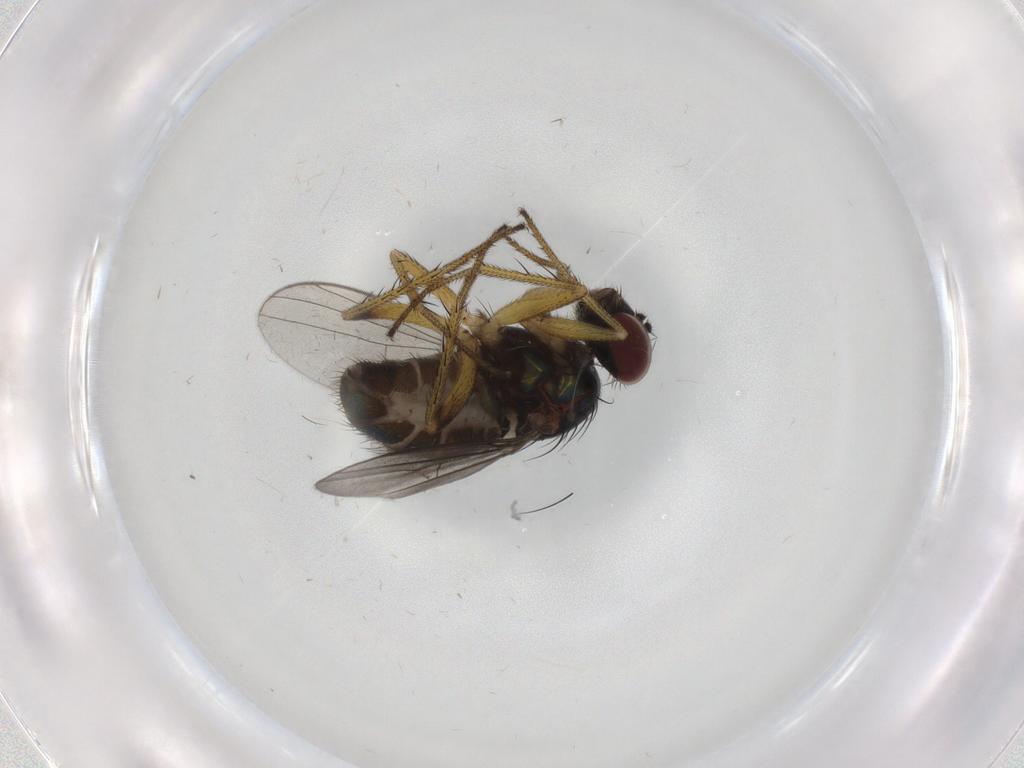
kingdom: Animalia
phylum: Arthropoda
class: Insecta
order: Diptera
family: Dolichopodidae
